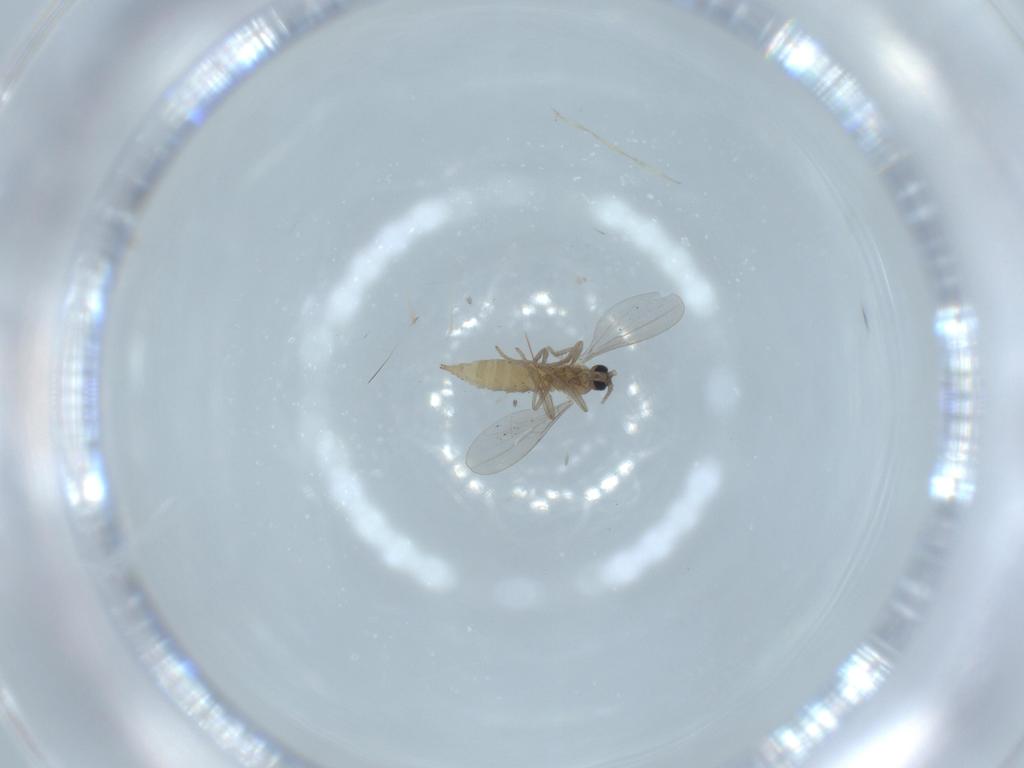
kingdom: Animalia
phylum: Arthropoda
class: Insecta
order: Diptera
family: Cecidomyiidae
